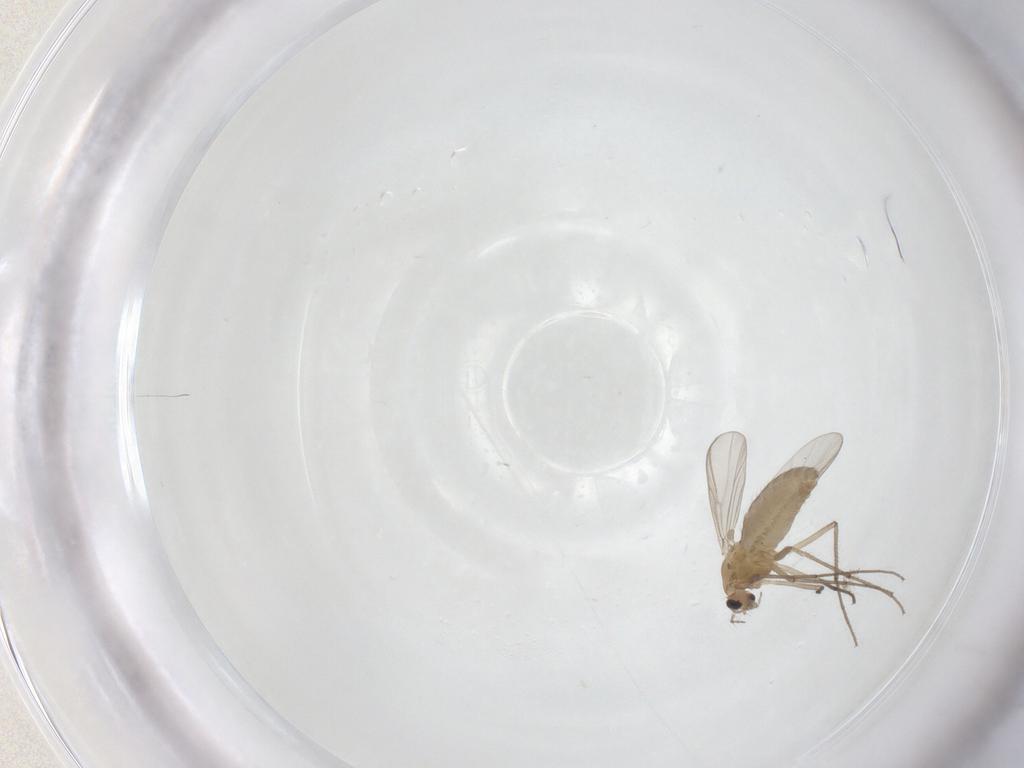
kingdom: Animalia
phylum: Arthropoda
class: Insecta
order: Diptera
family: Chironomidae
